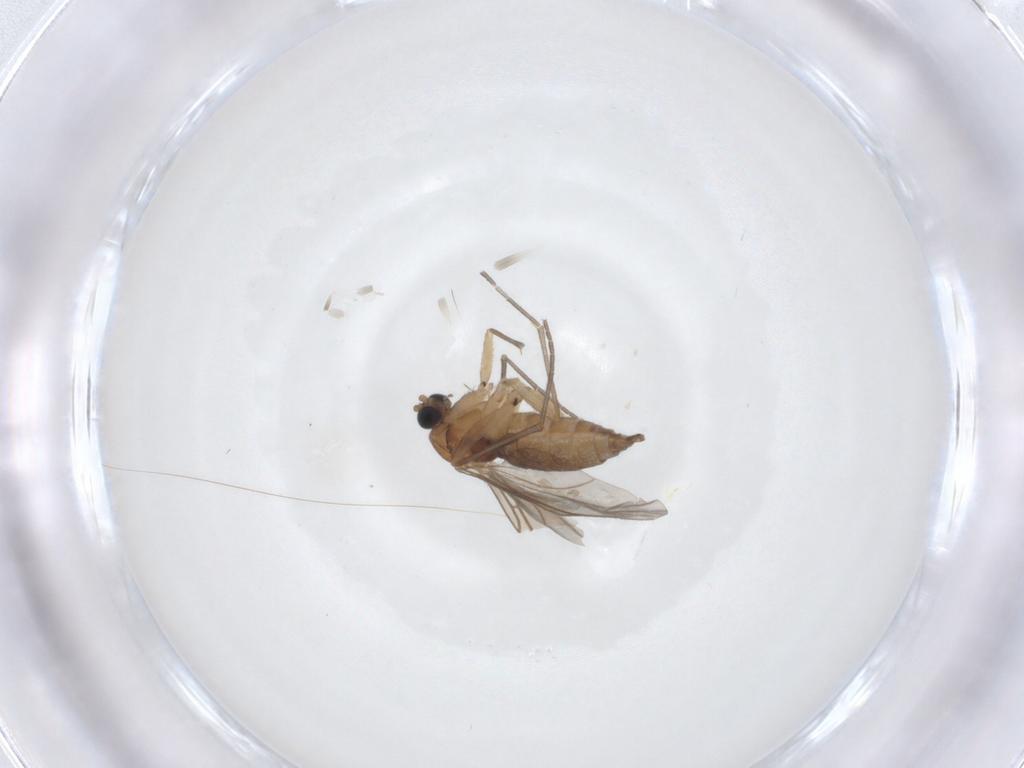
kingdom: Animalia
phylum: Arthropoda
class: Insecta
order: Diptera
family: Sciaridae
